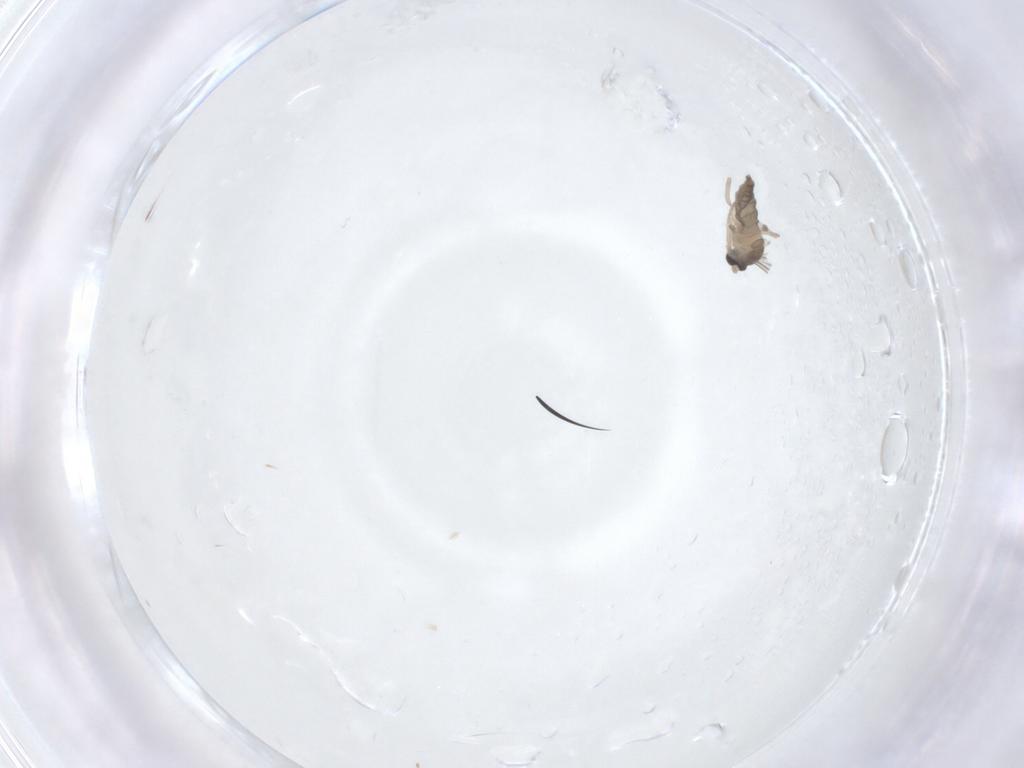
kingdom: Animalia
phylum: Arthropoda
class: Insecta
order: Diptera
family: Cecidomyiidae
